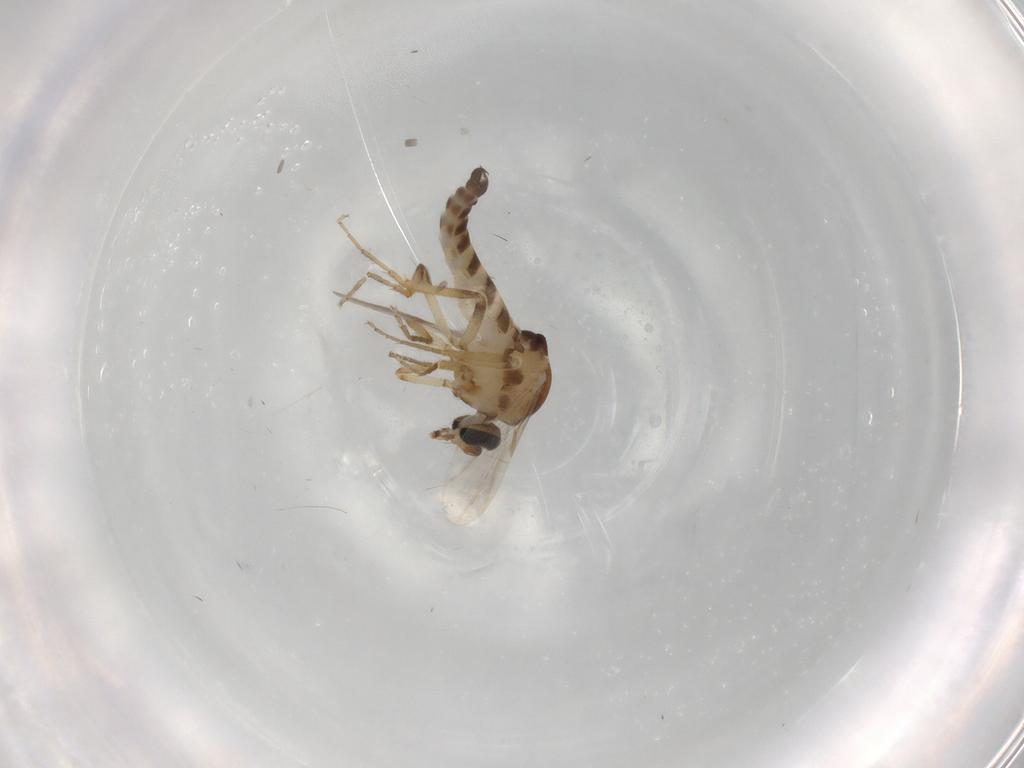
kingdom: Animalia
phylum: Arthropoda
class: Insecta
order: Diptera
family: Ceratopogonidae
